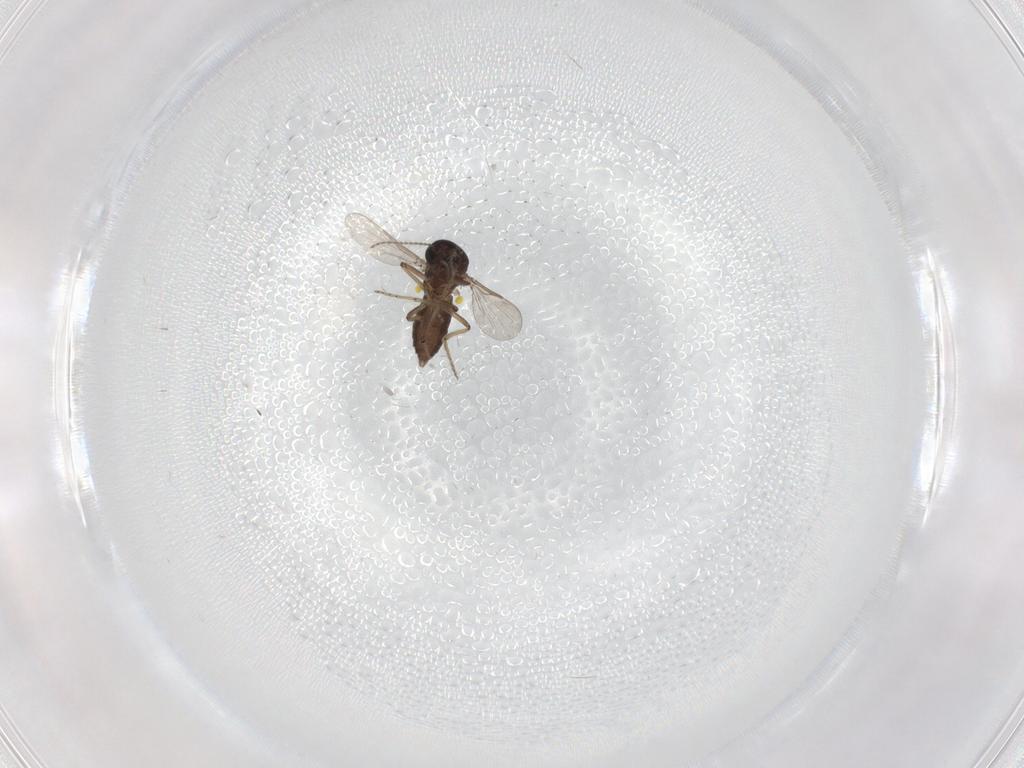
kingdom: Animalia
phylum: Arthropoda
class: Insecta
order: Diptera
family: Ceratopogonidae
